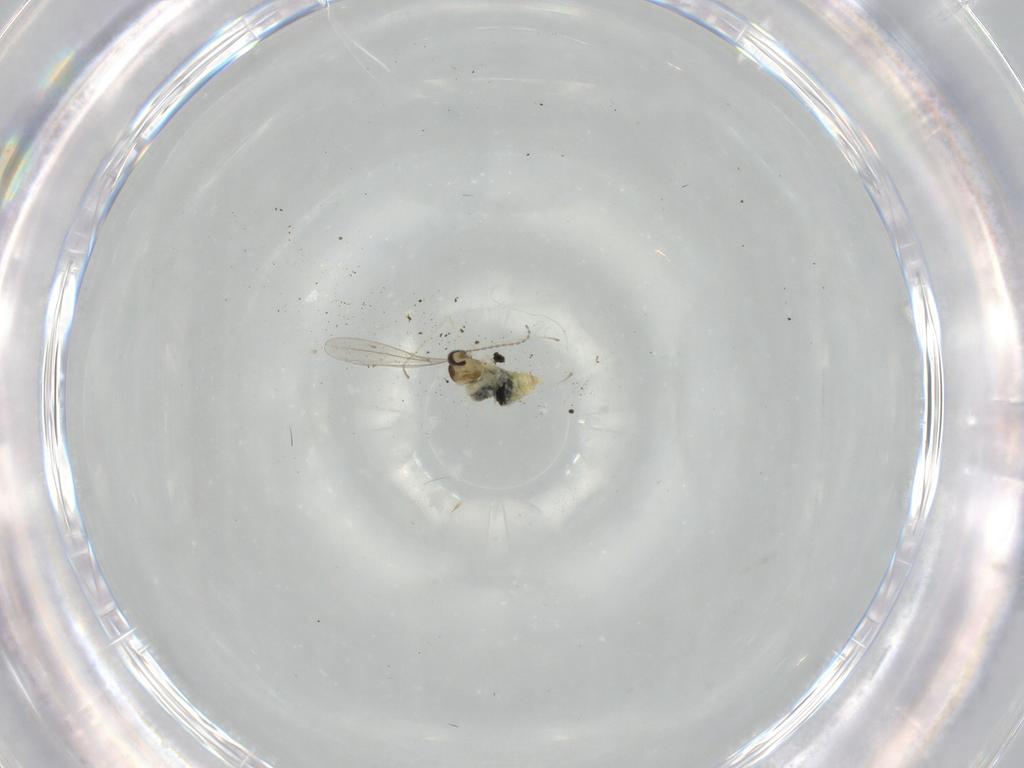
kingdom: Animalia
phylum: Arthropoda
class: Insecta
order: Diptera
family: Cecidomyiidae
